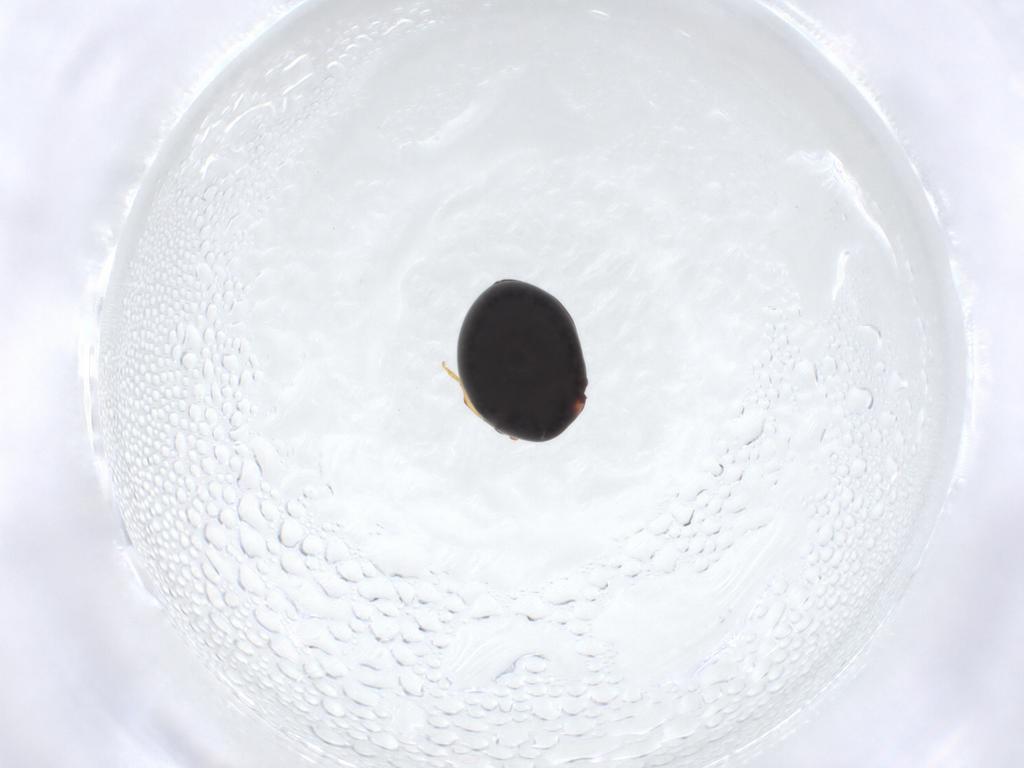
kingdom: Animalia
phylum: Arthropoda
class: Insecta
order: Coleoptera
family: Coccinellidae
